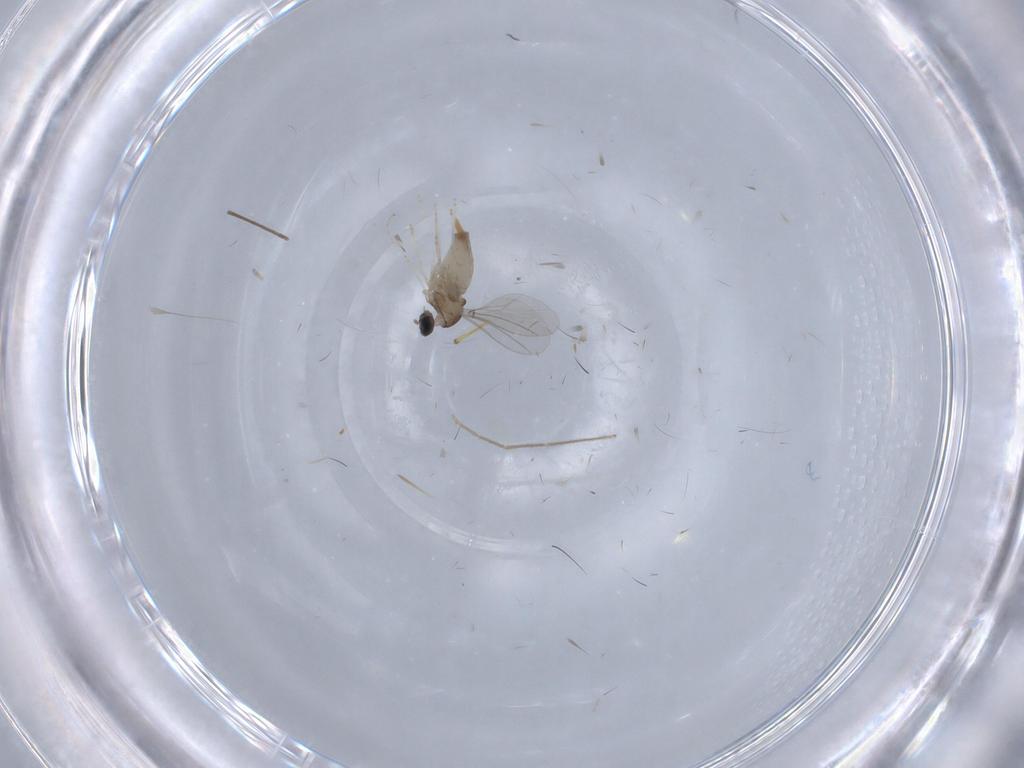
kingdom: Animalia
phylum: Arthropoda
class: Insecta
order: Diptera
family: Cecidomyiidae
